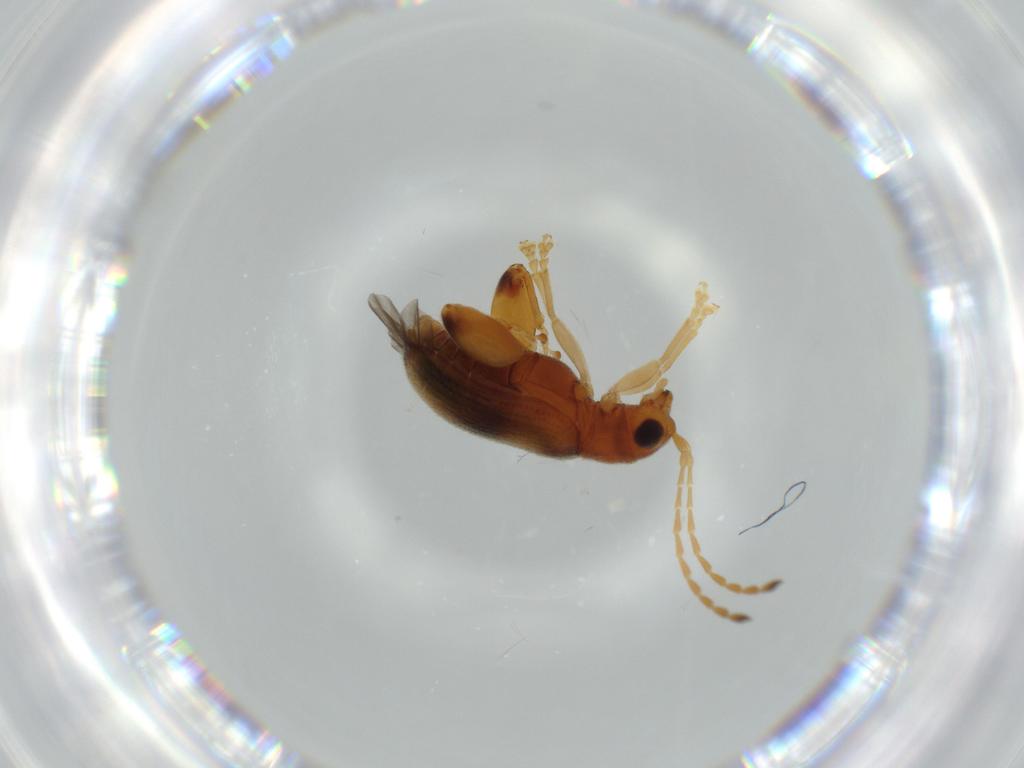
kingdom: Animalia
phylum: Arthropoda
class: Insecta
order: Coleoptera
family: Chrysomelidae
